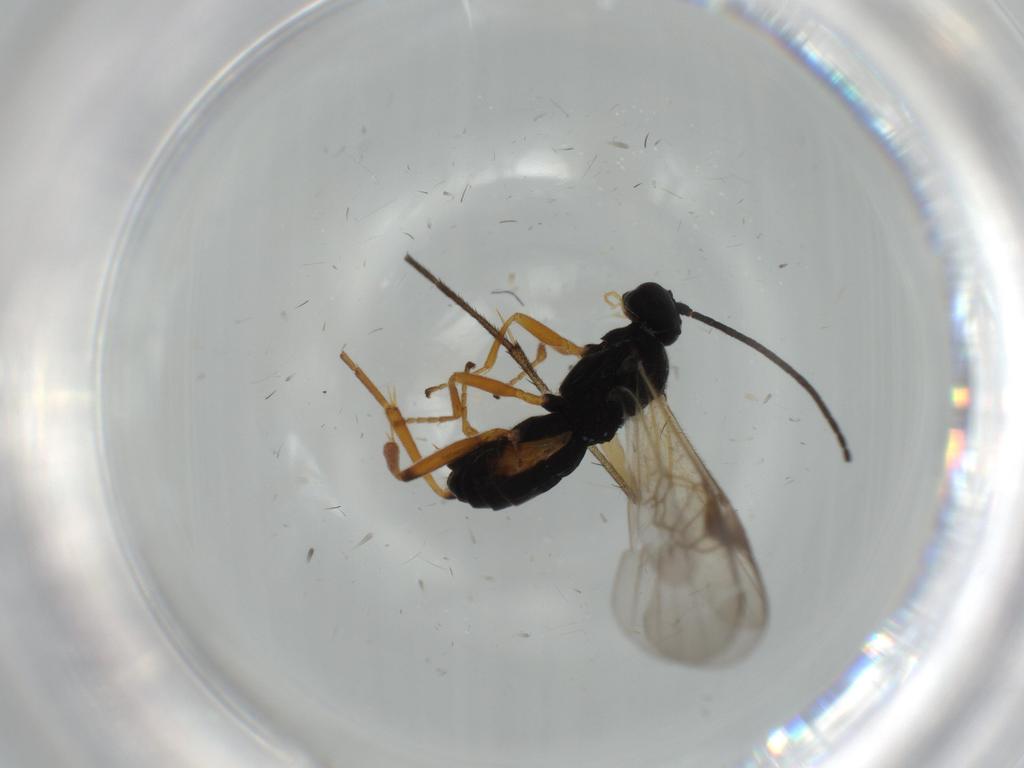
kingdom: Animalia
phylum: Arthropoda
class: Insecta
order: Hymenoptera
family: Braconidae
